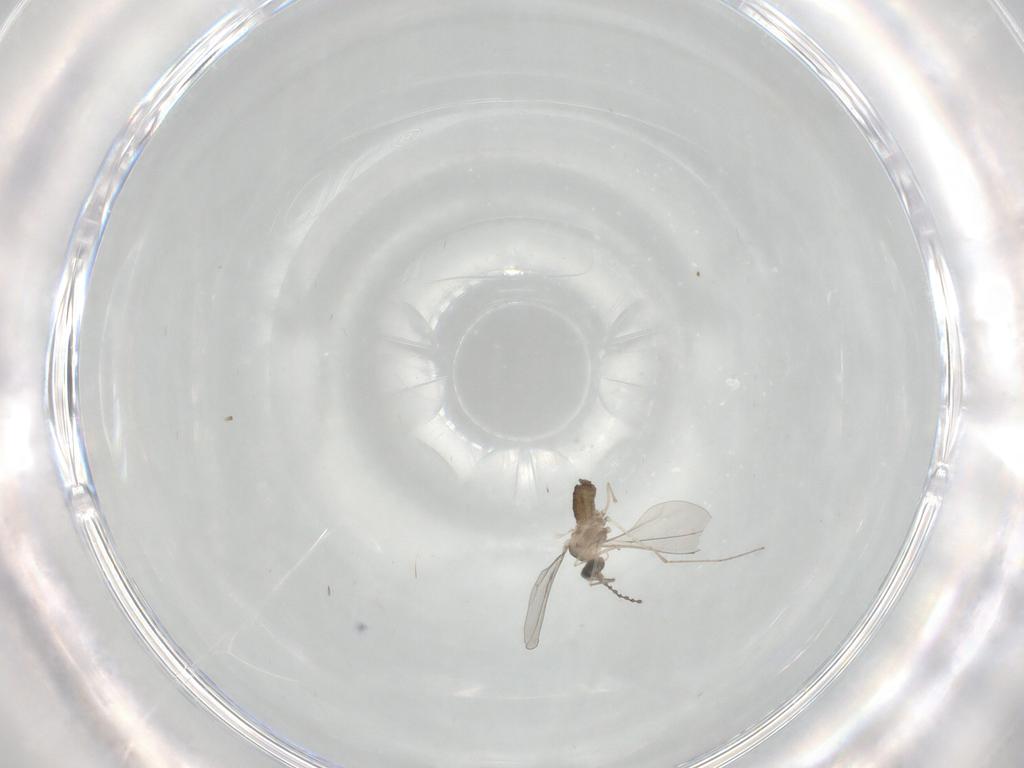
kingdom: Animalia
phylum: Arthropoda
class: Insecta
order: Diptera
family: Cecidomyiidae
